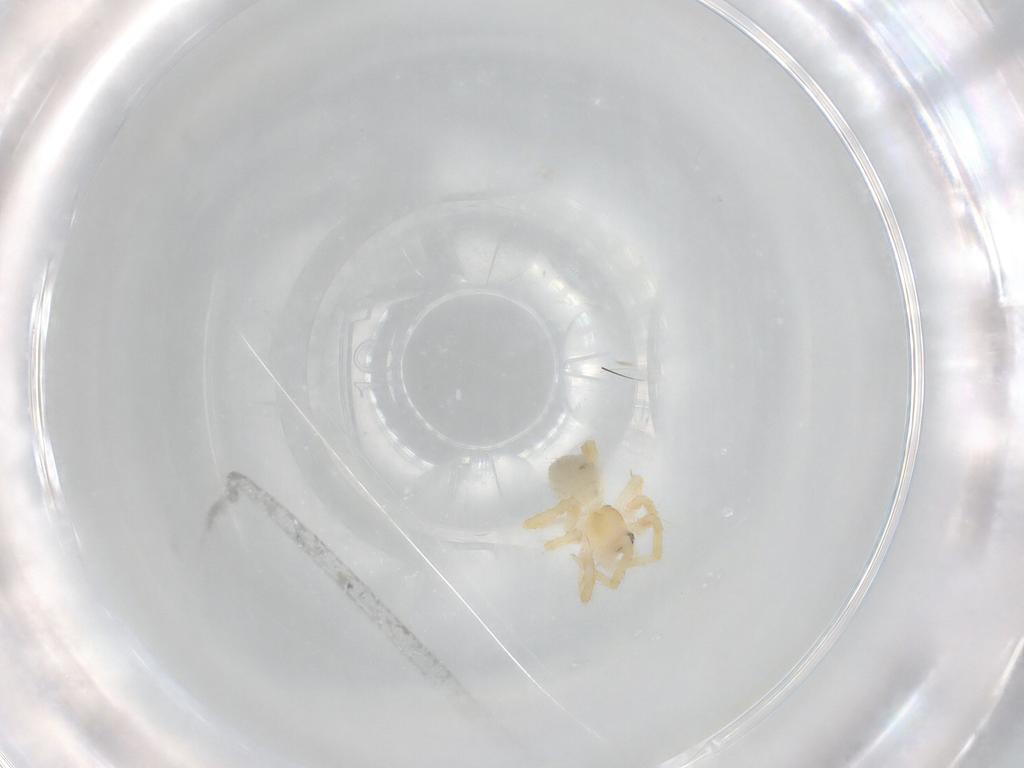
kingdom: Animalia
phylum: Arthropoda
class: Arachnida
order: Araneae
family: Theridiidae
